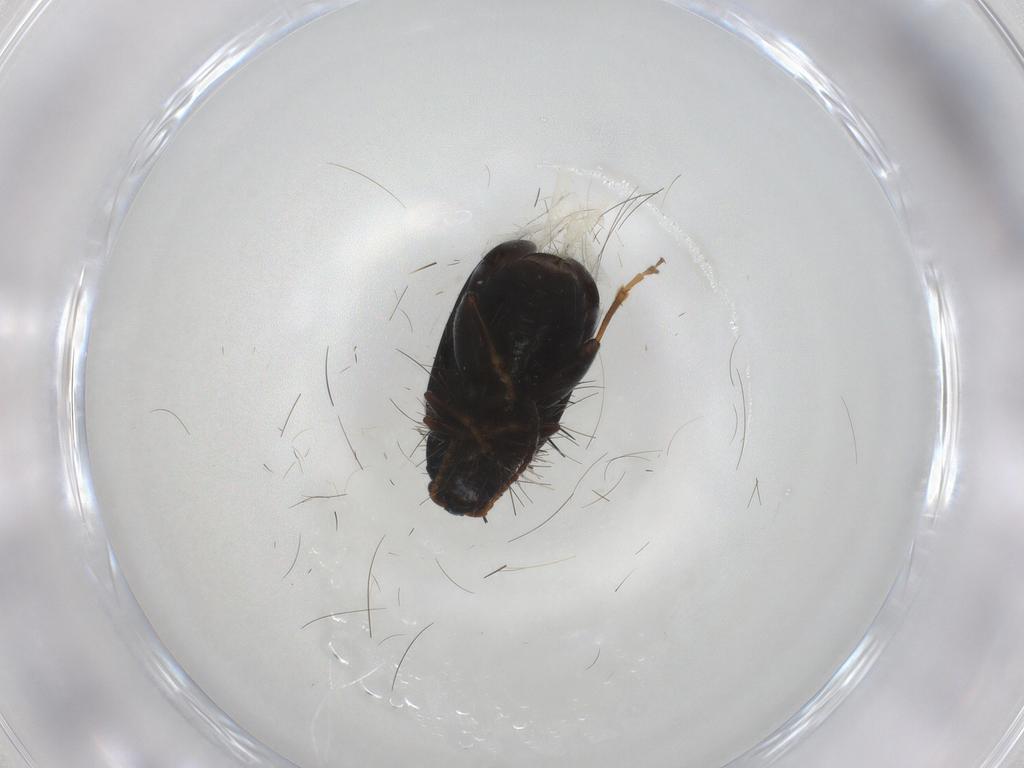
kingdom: Animalia
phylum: Arthropoda
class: Insecta
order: Coleoptera
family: Chrysomelidae
